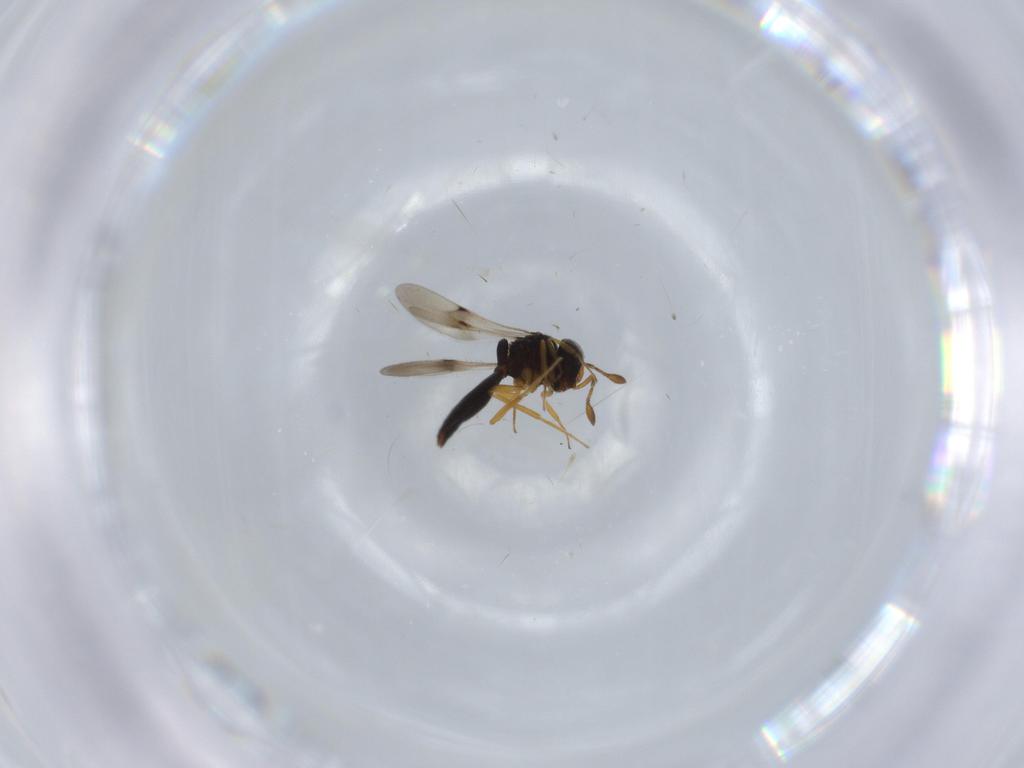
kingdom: Animalia
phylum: Arthropoda
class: Insecta
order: Hymenoptera
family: Scelionidae
